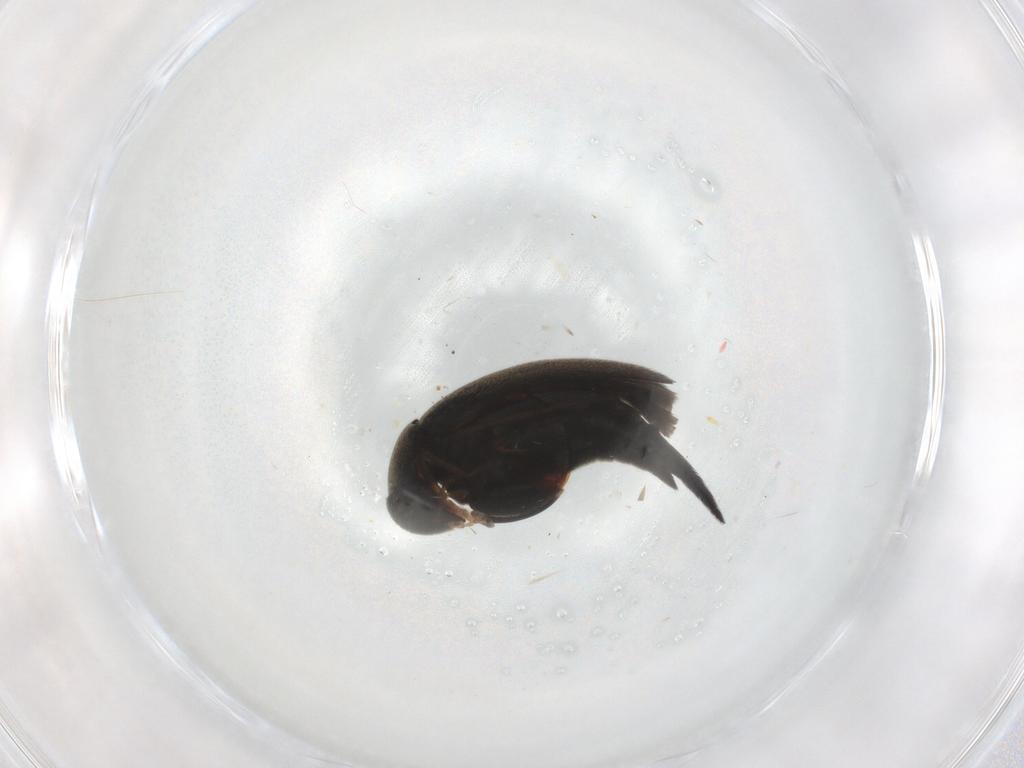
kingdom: Animalia
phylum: Arthropoda
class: Insecta
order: Coleoptera
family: Mordellidae
